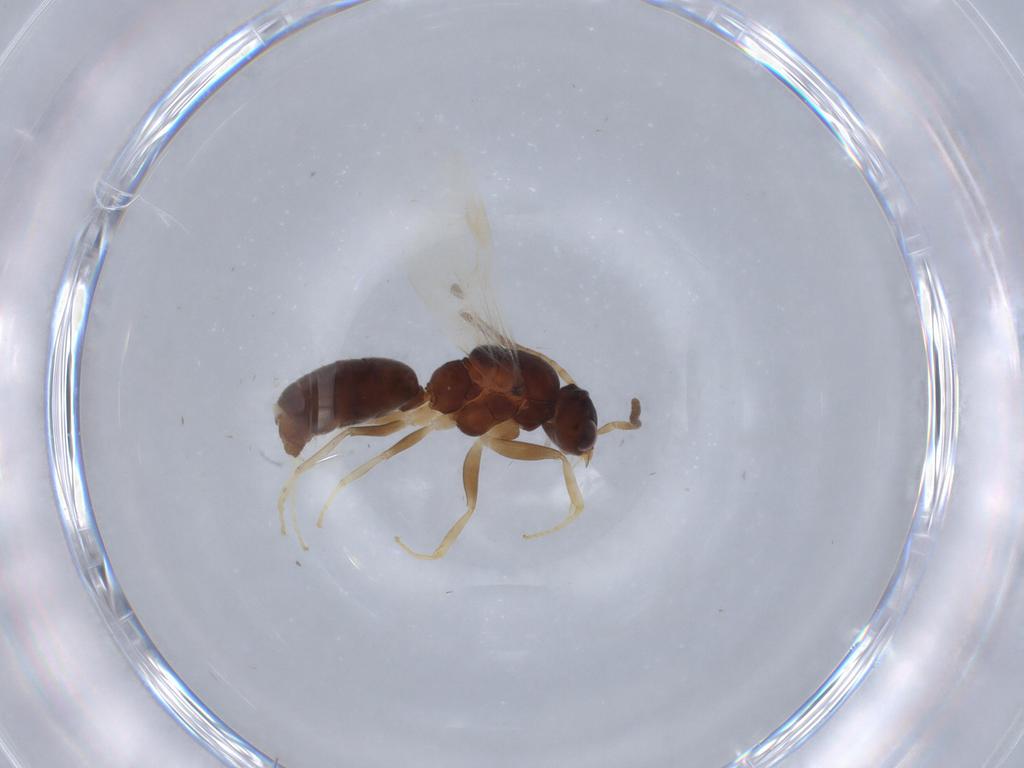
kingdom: Animalia
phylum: Arthropoda
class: Insecta
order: Hymenoptera
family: Formicidae
